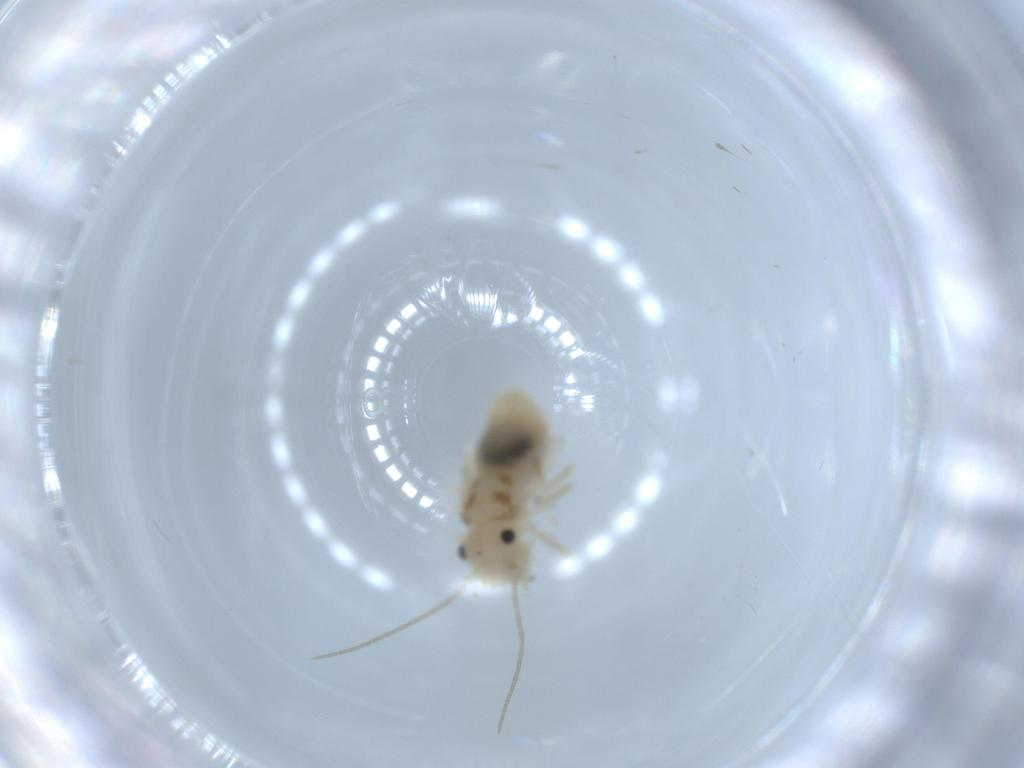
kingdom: Animalia
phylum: Arthropoda
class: Insecta
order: Psocodea
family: Caeciliusidae
